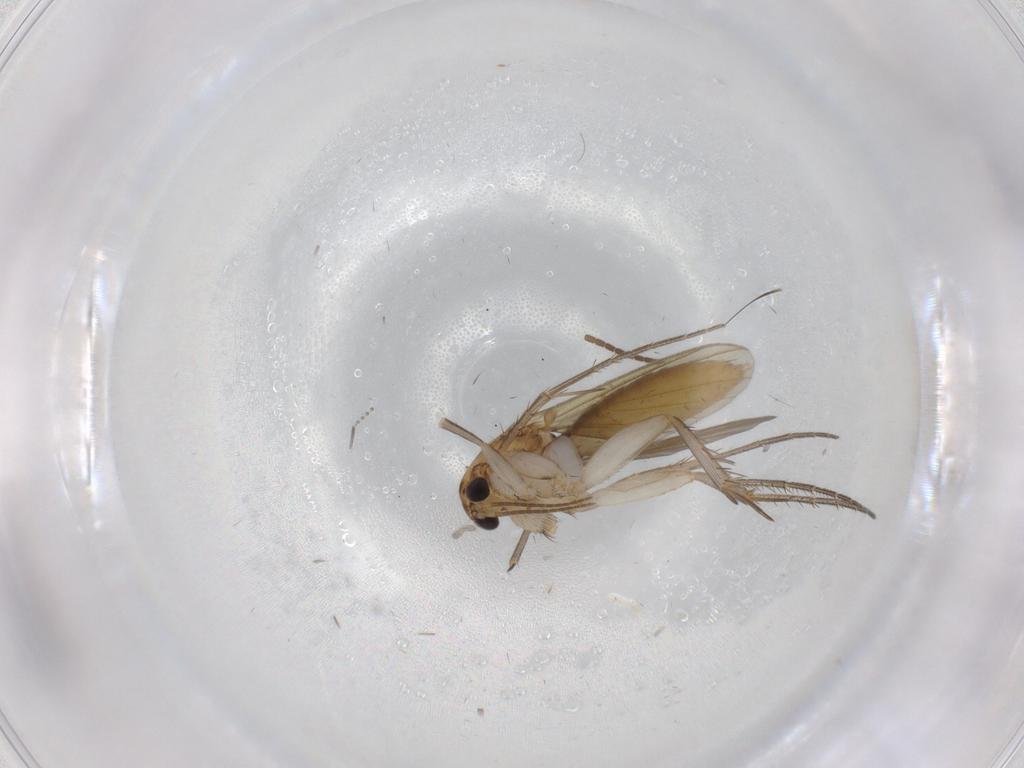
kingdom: Animalia
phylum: Arthropoda
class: Insecta
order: Diptera
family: Mycetophilidae
